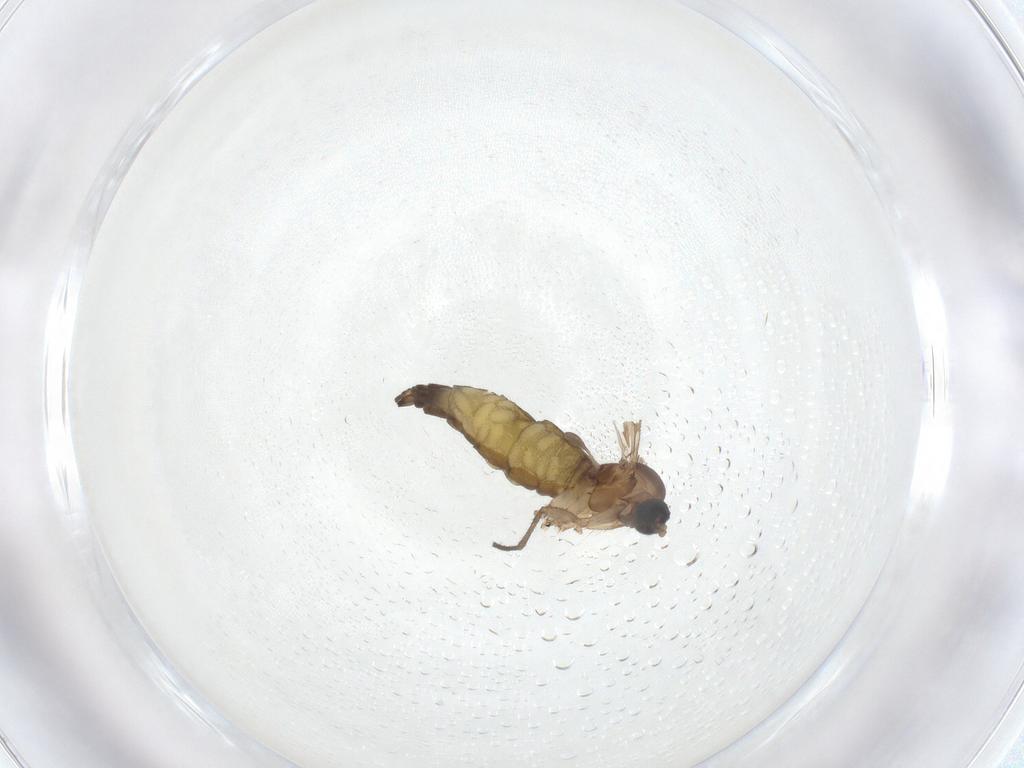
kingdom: Animalia
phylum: Arthropoda
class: Insecta
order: Diptera
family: Sciaridae
